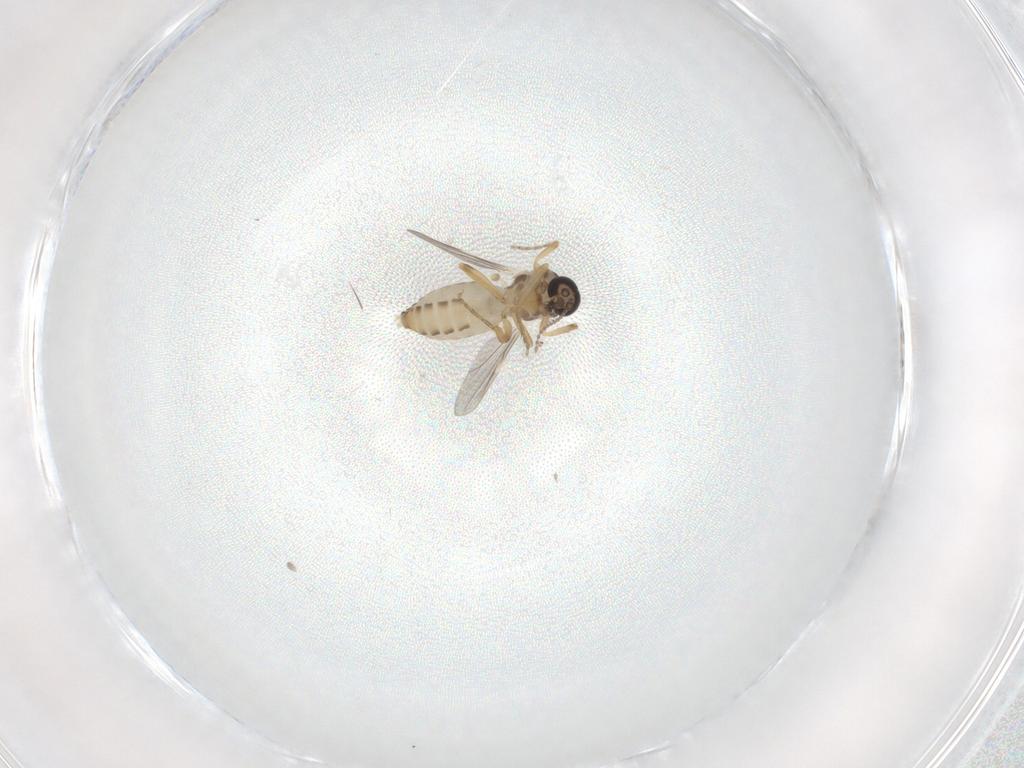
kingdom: Animalia
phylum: Arthropoda
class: Insecta
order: Diptera
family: Ceratopogonidae
